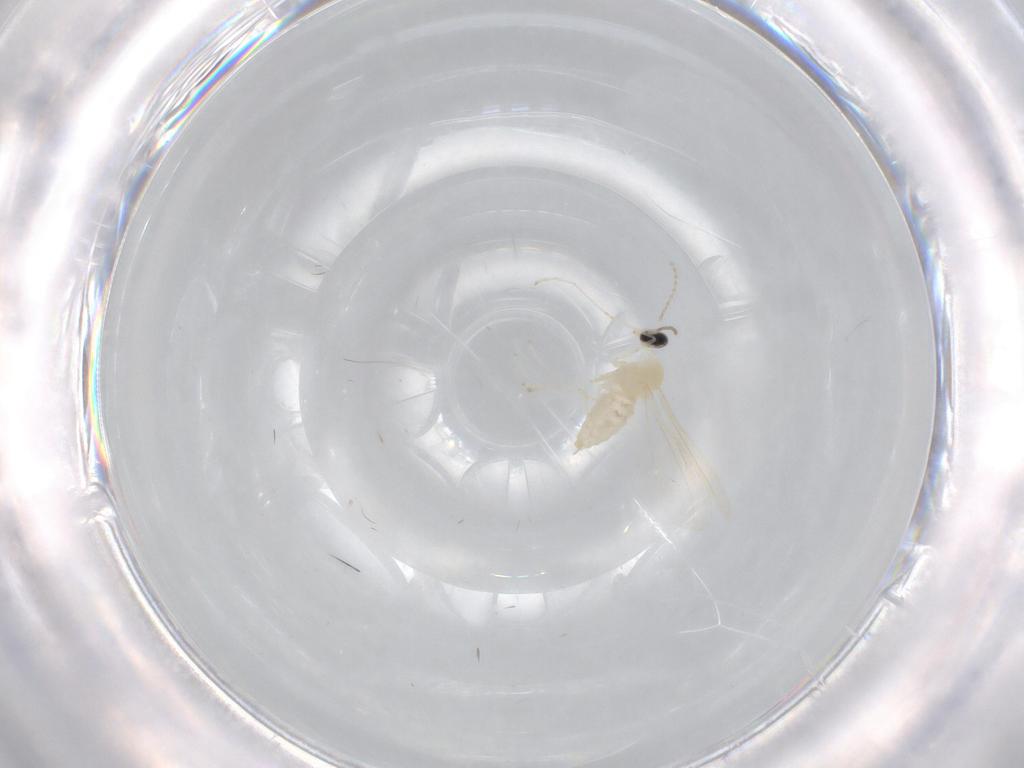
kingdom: Animalia
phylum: Arthropoda
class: Insecta
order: Diptera
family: Cecidomyiidae
